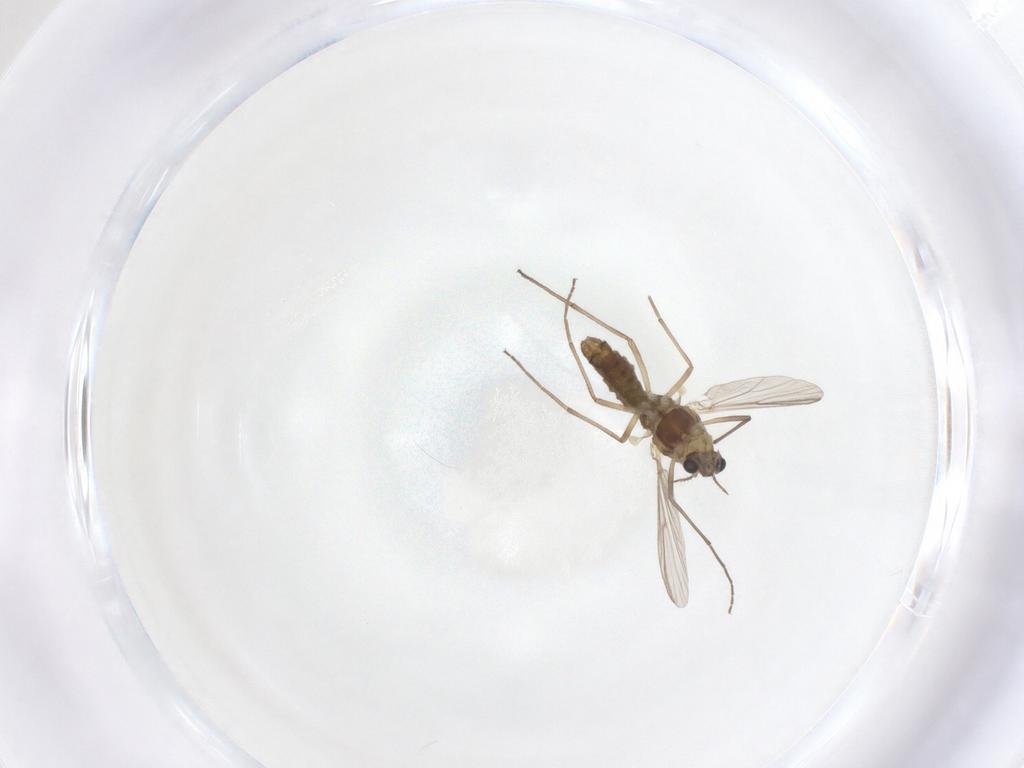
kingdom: Animalia
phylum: Arthropoda
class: Insecta
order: Diptera
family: Chironomidae
